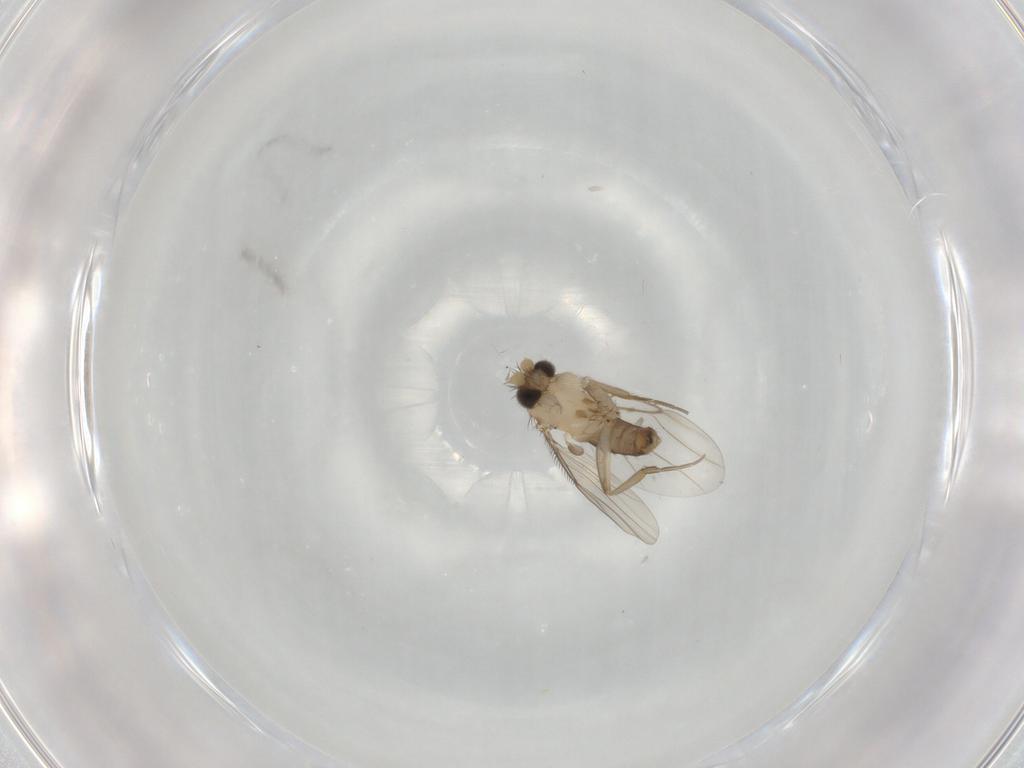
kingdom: Animalia
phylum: Arthropoda
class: Insecta
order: Diptera
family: Phoridae
